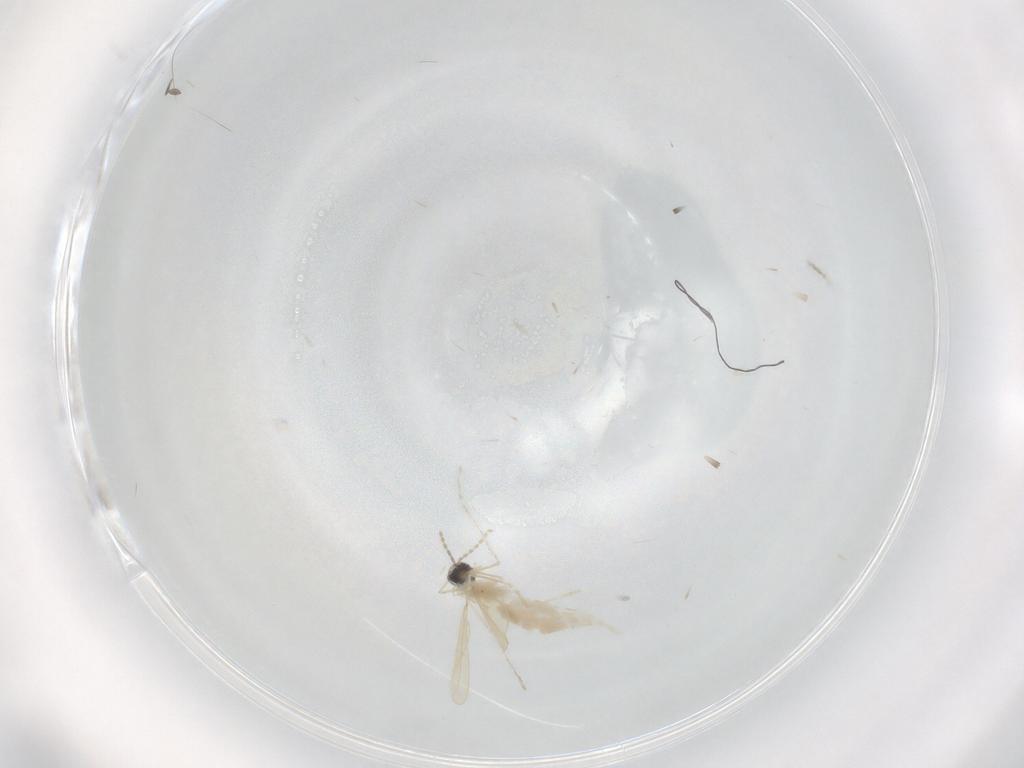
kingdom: Animalia
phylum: Arthropoda
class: Insecta
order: Diptera
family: Cecidomyiidae
